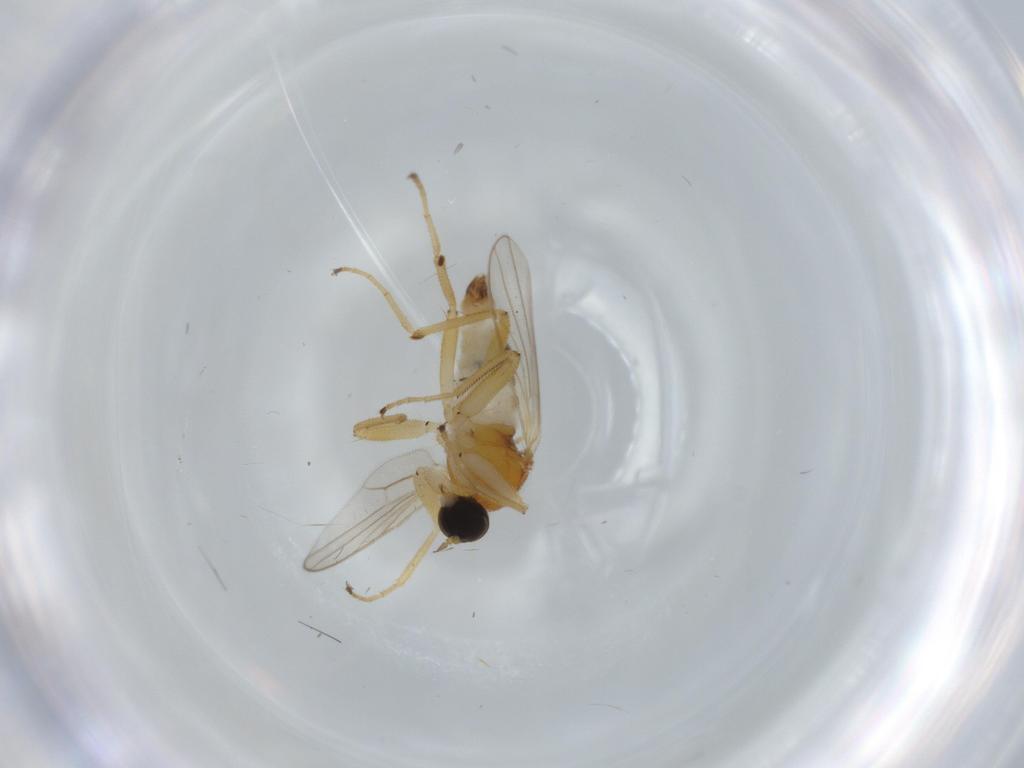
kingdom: Animalia
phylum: Arthropoda
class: Insecta
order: Diptera
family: Hybotidae
